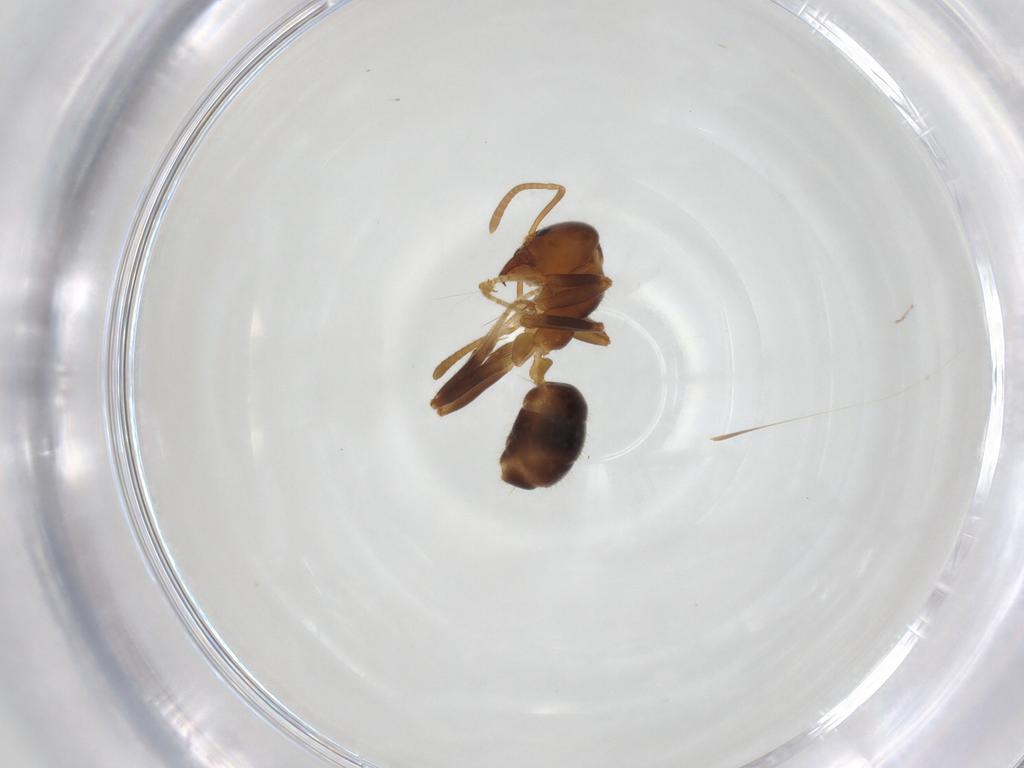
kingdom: Animalia
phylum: Arthropoda
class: Insecta
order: Hymenoptera
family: Formicidae
